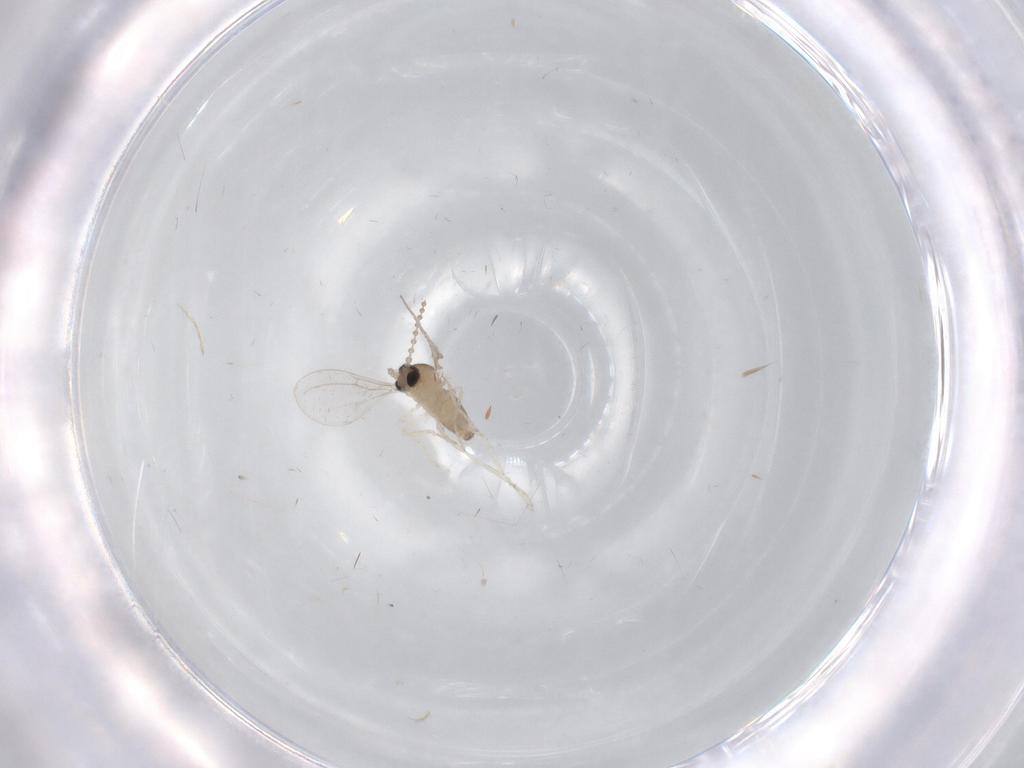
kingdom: Animalia
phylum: Arthropoda
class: Insecta
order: Diptera
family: Cecidomyiidae
